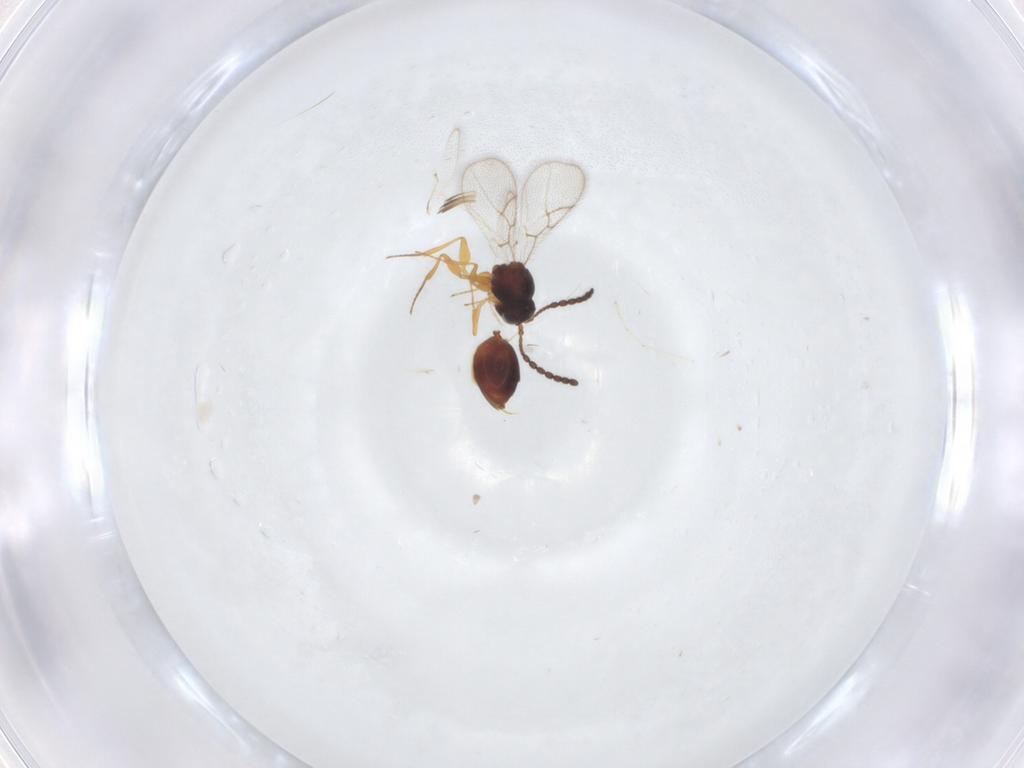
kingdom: Animalia
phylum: Arthropoda
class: Insecta
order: Hymenoptera
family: Figitidae
